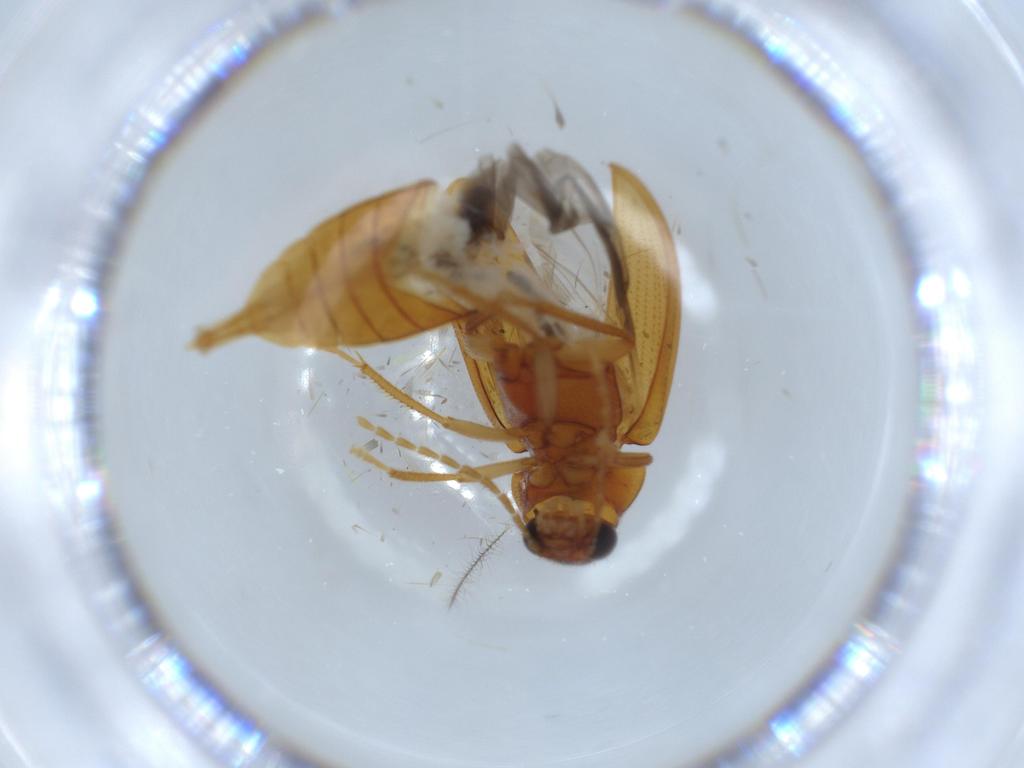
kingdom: Animalia
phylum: Arthropoda
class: Insecta
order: Coleoptera
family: Ptilodactylidae
